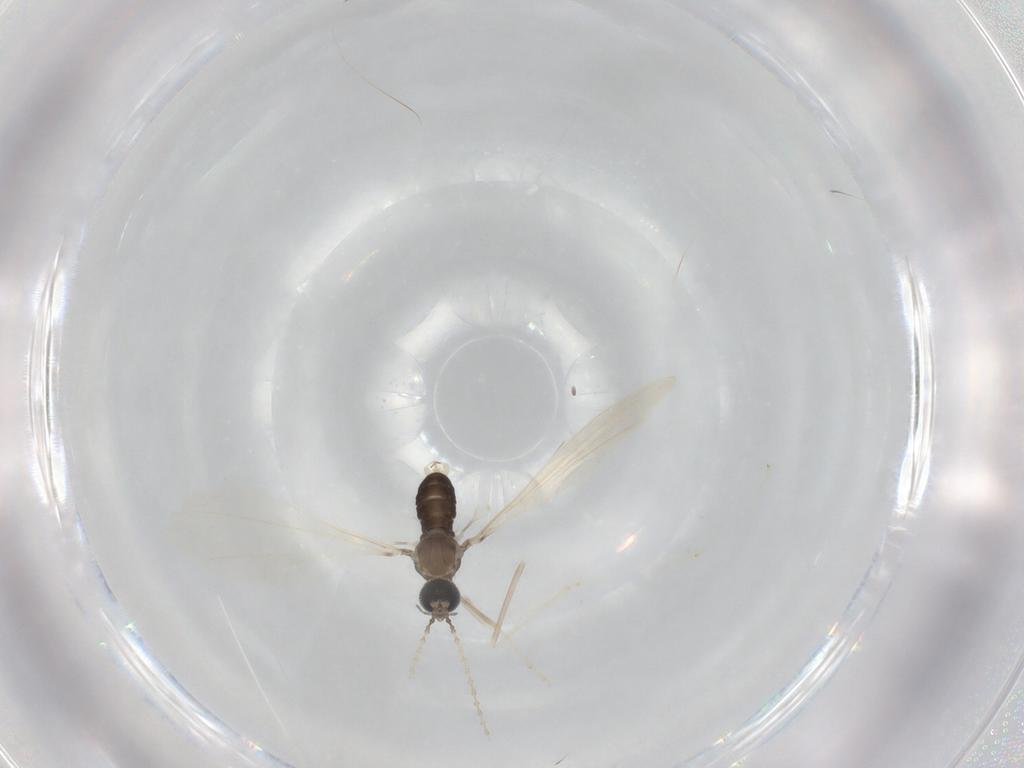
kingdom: Animalia
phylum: Arthropoda
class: Insecta
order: Diptera
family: Cecidomyiidae
